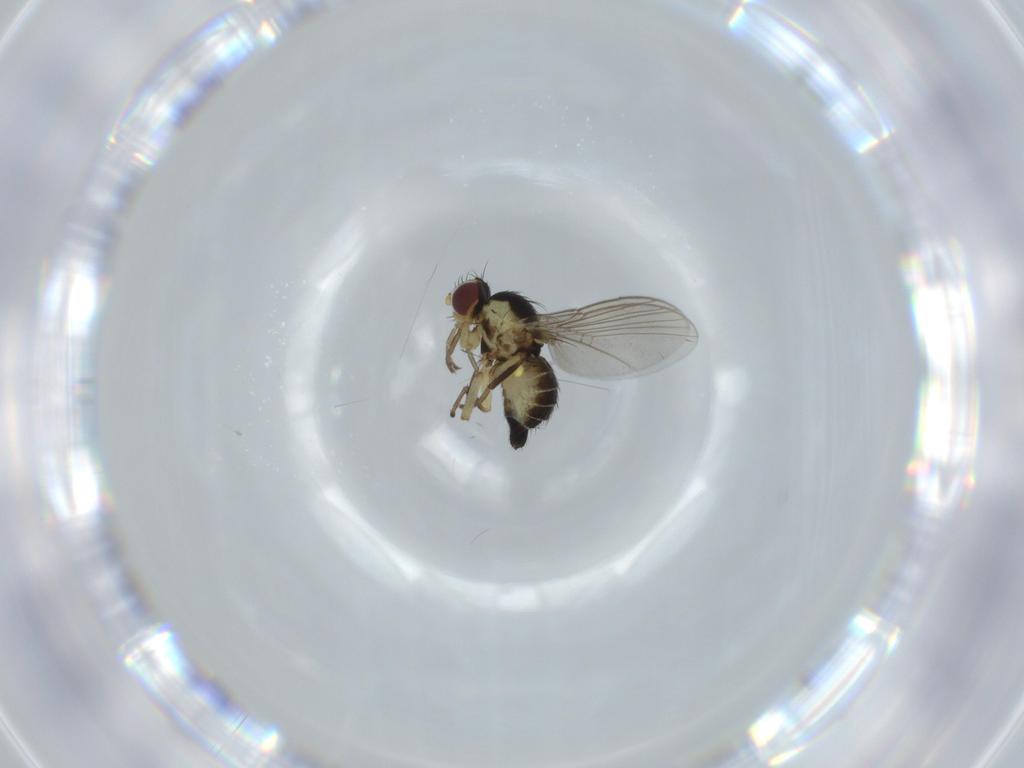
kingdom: Animalia
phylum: Arthropoda
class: Insecta
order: Diptera
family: Agromyzidae
